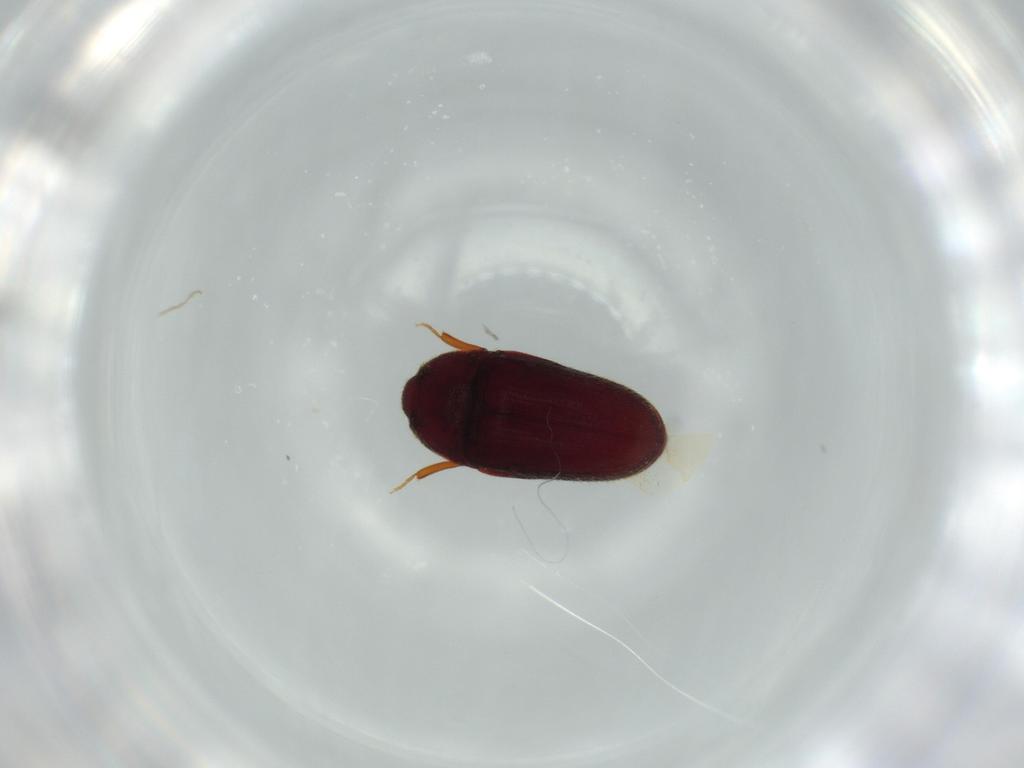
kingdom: Animalia
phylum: Arthropoda
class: Insecta
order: Coleoptera
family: Throscidae
